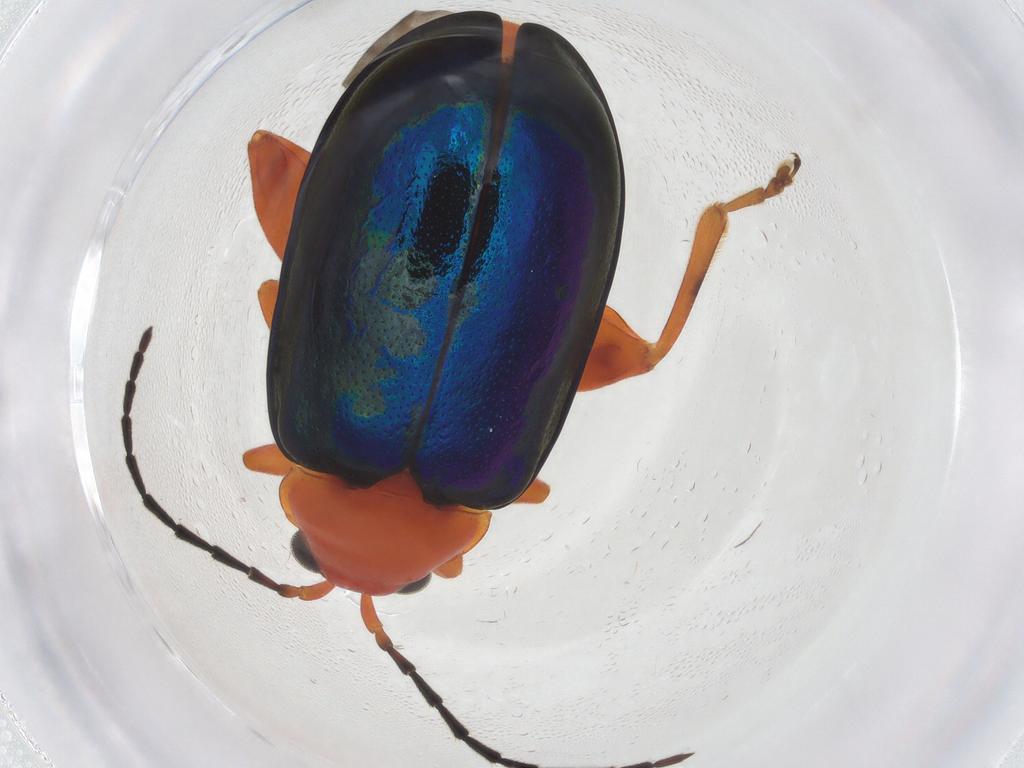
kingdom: Animalia
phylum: Arthropoda
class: Insecta
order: Coleoptera
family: Chrysomelidae
